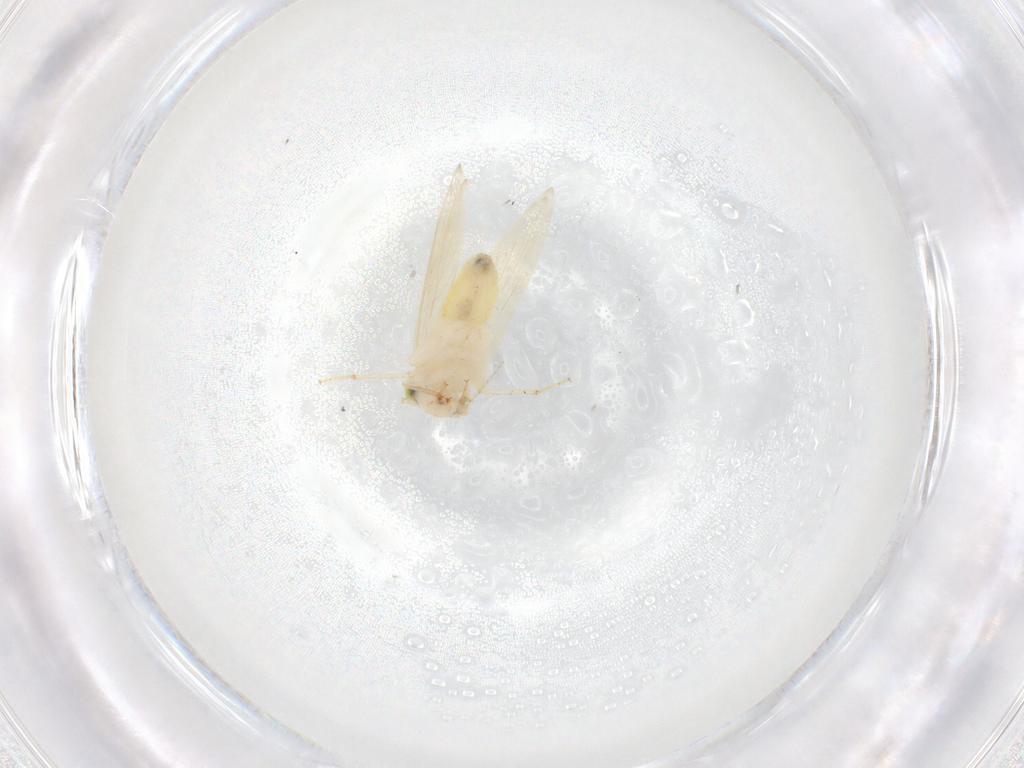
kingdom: Animalia
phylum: Arthropoda
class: Insecta
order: Psocodea
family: Lepidopsocidae
